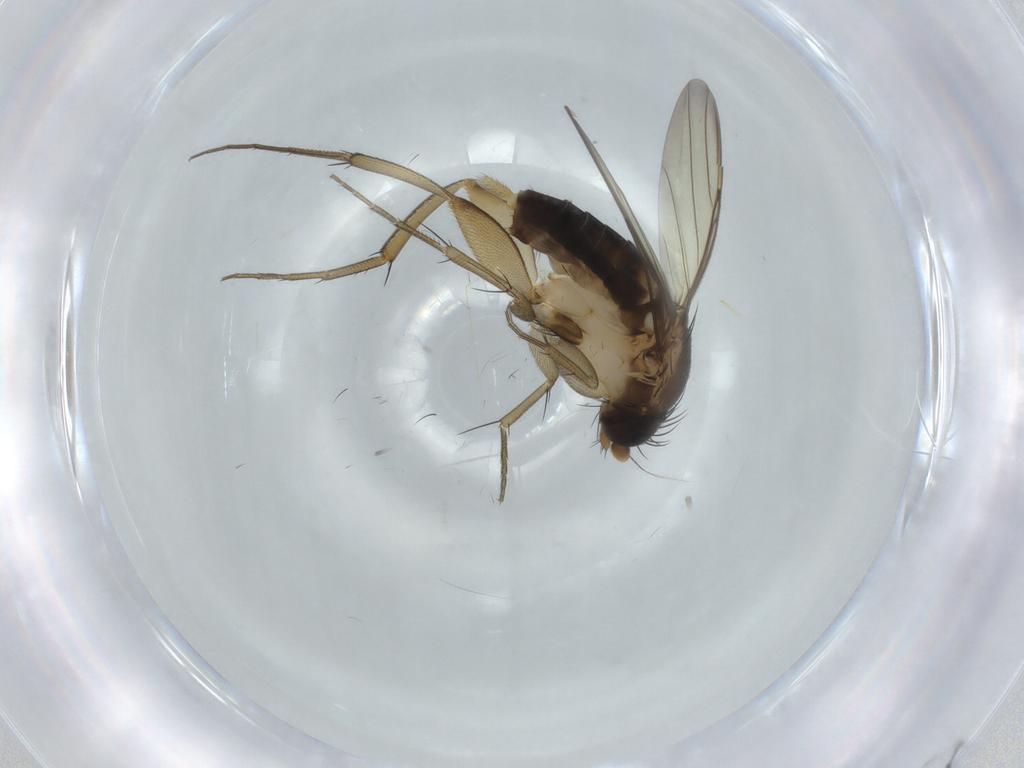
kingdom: Animalia
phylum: Arthropoda
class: Insecta
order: Diptera
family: Phoridae
